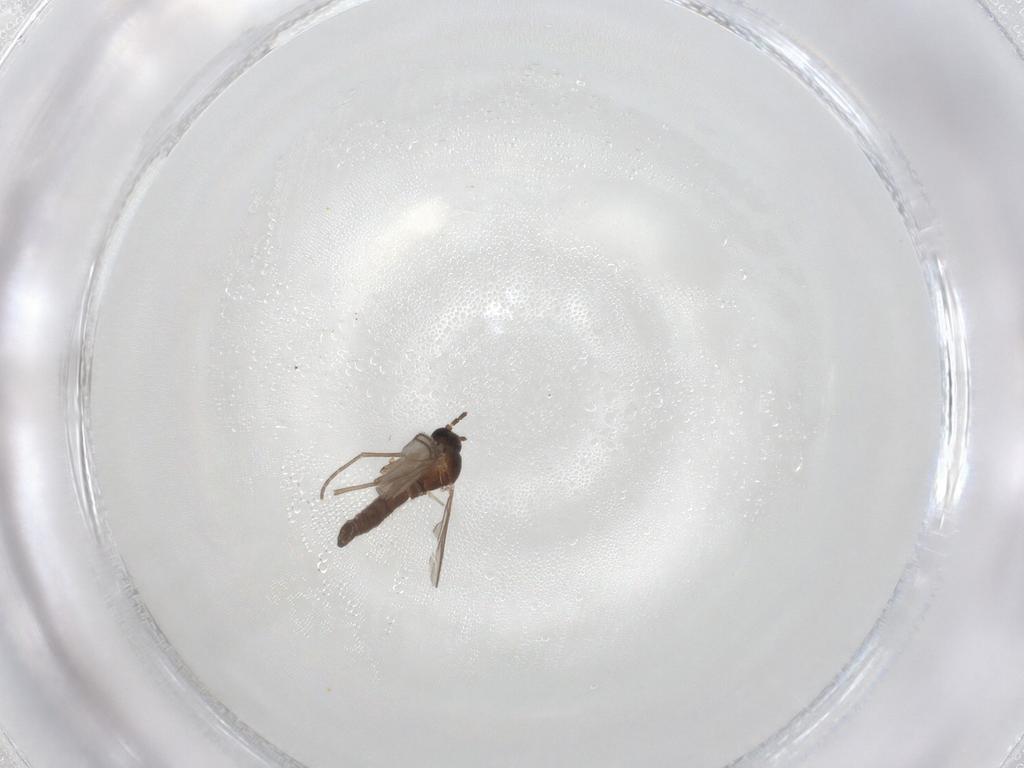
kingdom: Animalia
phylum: Arthropoda
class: Insecta
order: Diptera
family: Sciaridae
